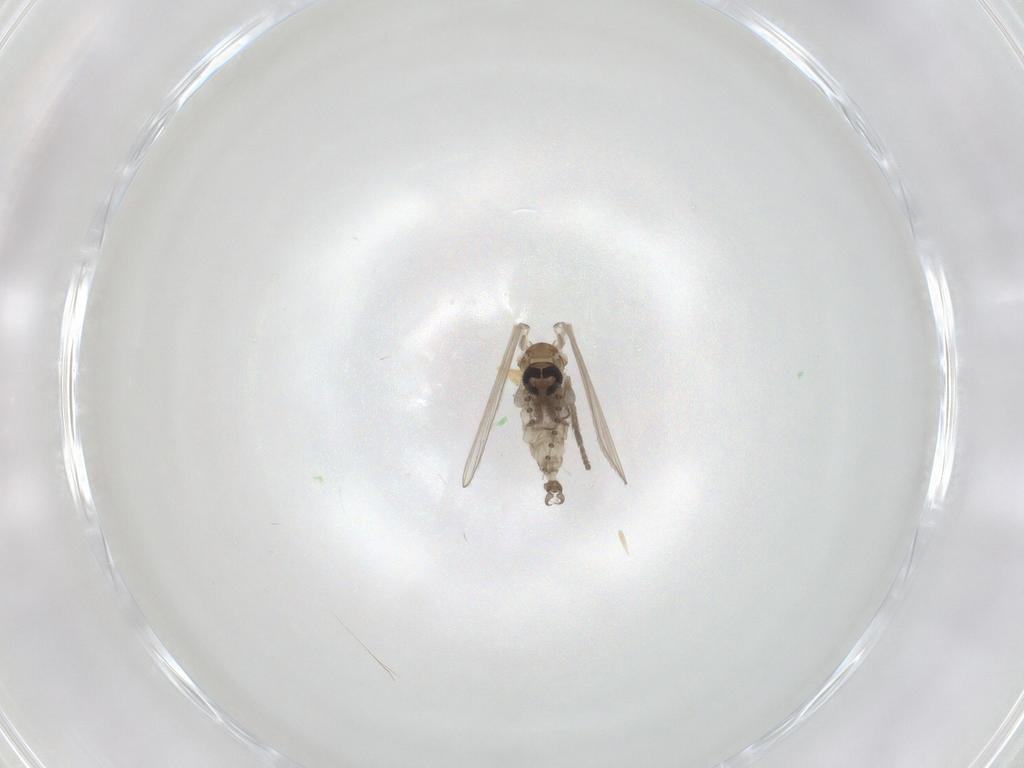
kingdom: Animalia
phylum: Arthropoda
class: Insecta
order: Diptera
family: Psychodidae
